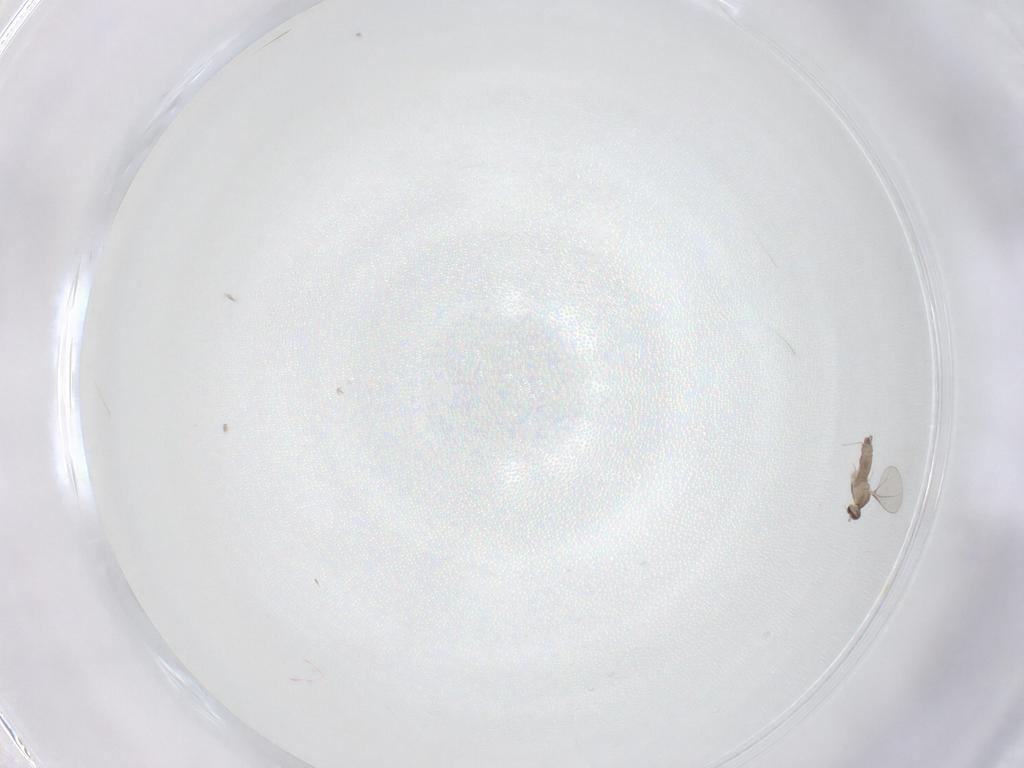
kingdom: Animalia
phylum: Arthropoda
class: Insecta
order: Diptera
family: Cecidomyiidae
